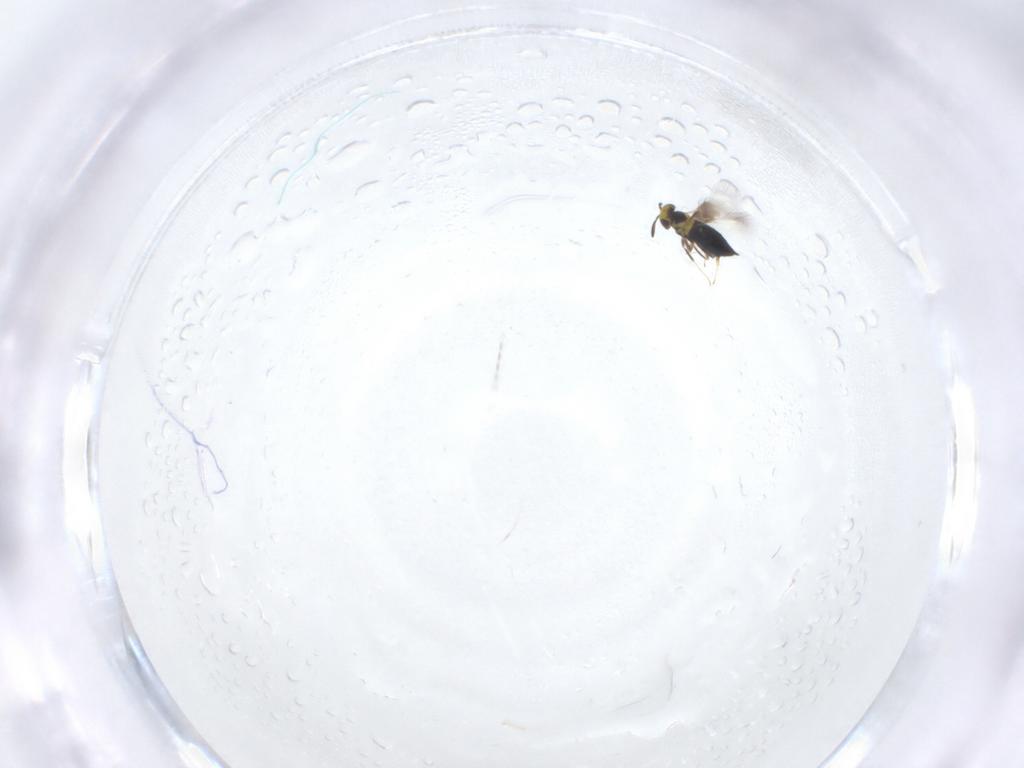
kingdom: Animalia
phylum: Arthropoda
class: Insecta
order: Hymenoptera
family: Signiphoridae
